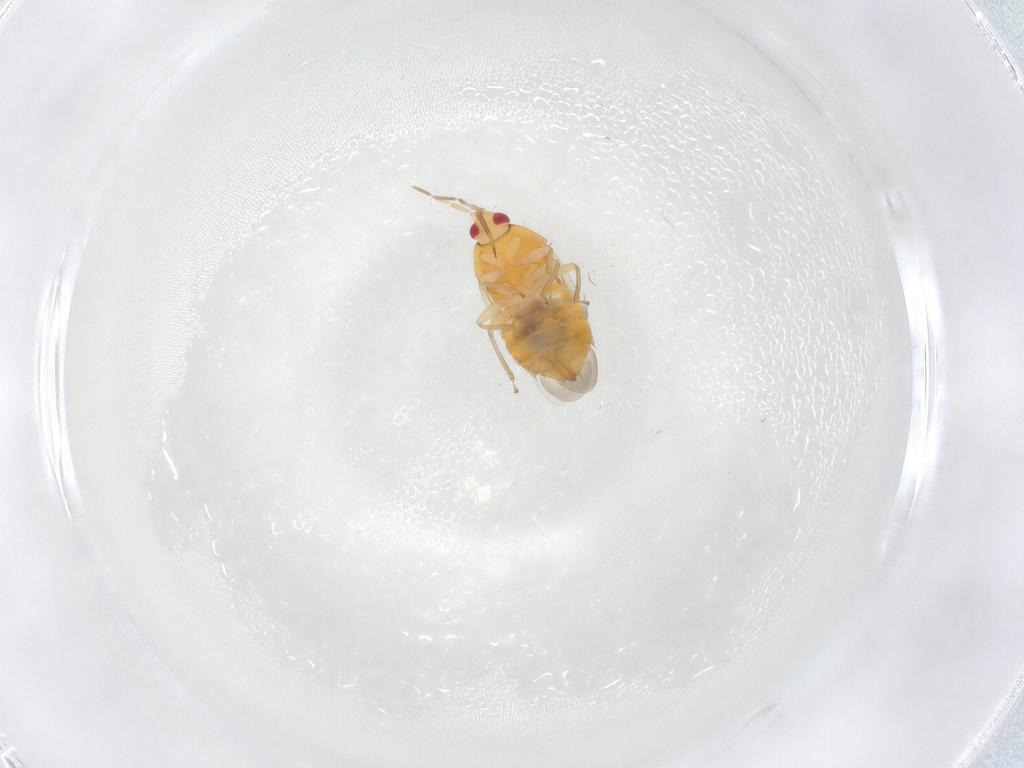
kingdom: Animalia
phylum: Arthropoda
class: Insecta
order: Hemiptera
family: Anthocoridae
